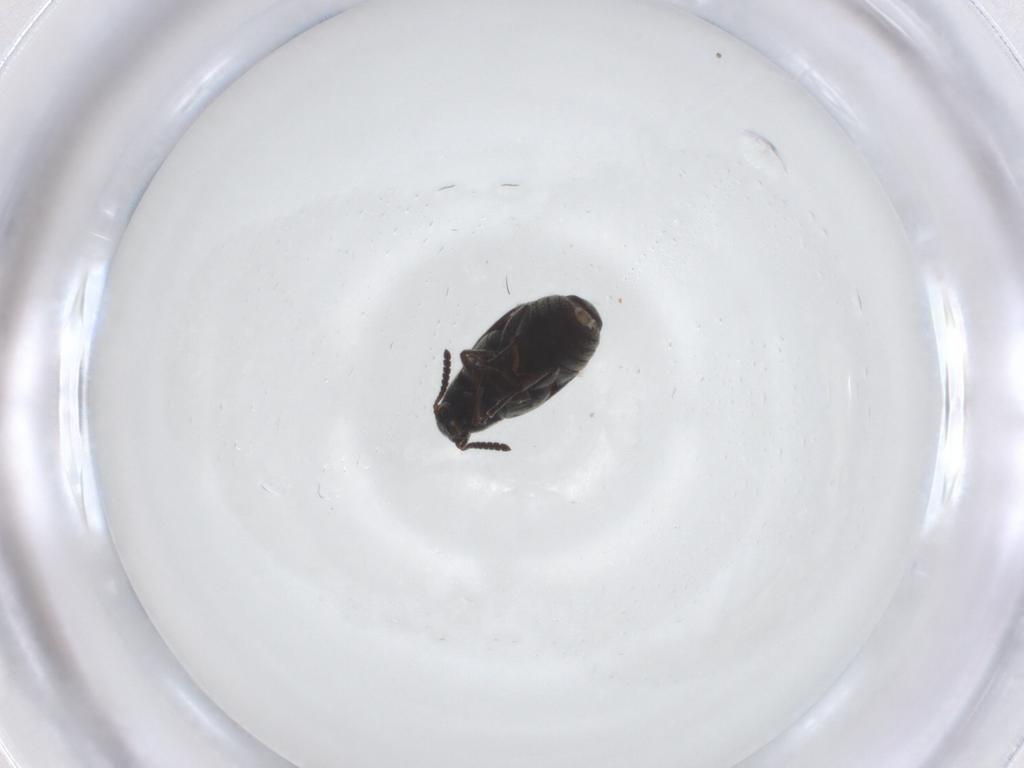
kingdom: Animalia
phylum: Arthropoda
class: Insecta
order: Coleoptera
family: Chrysomelidae
